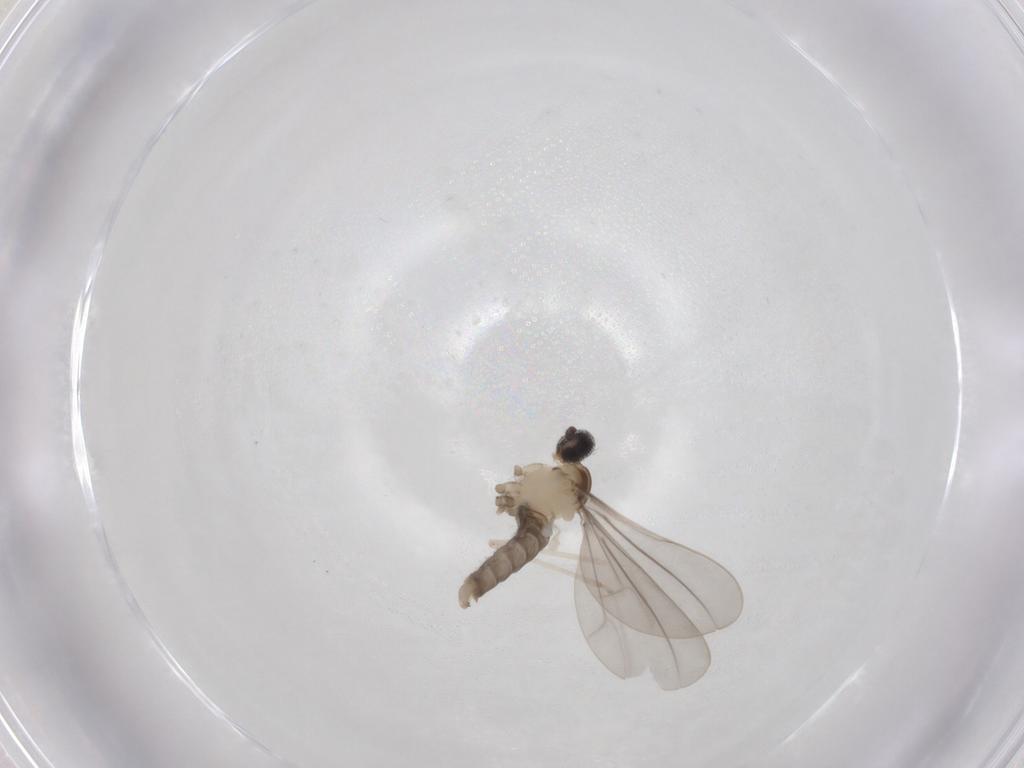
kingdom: Animalia
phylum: Arthropoda
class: Insecta
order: Diptera
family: Cecidomyiidae
